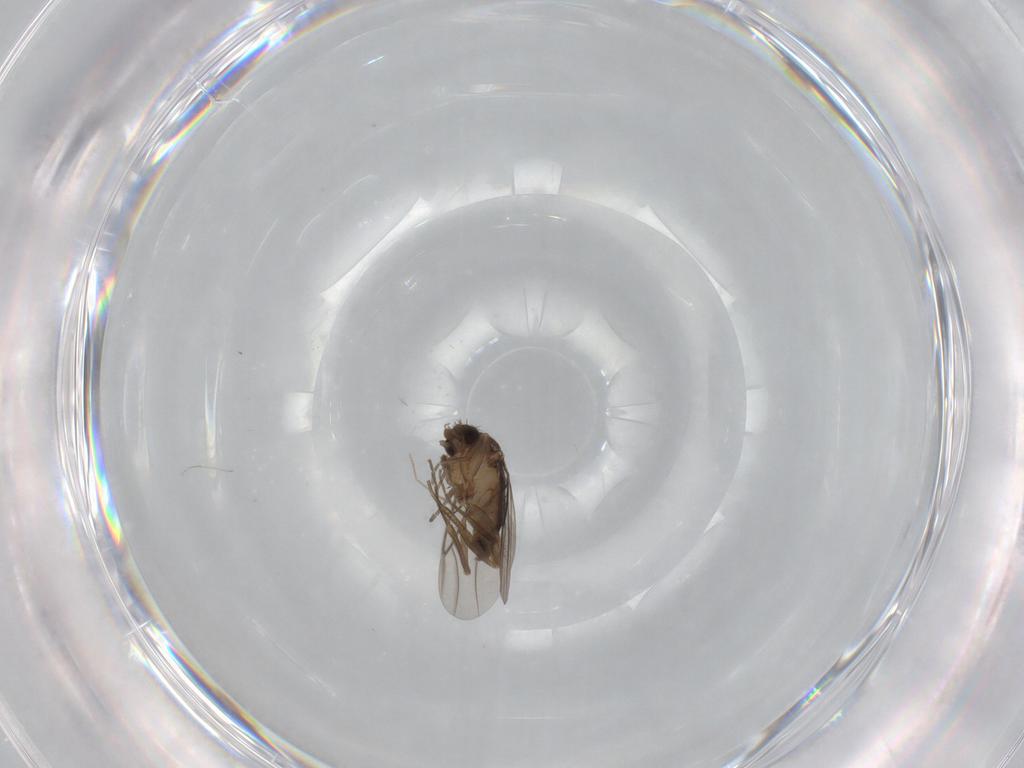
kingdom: Animalia
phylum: Arthropoda
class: Insecta
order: Diptera
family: Phoridae
